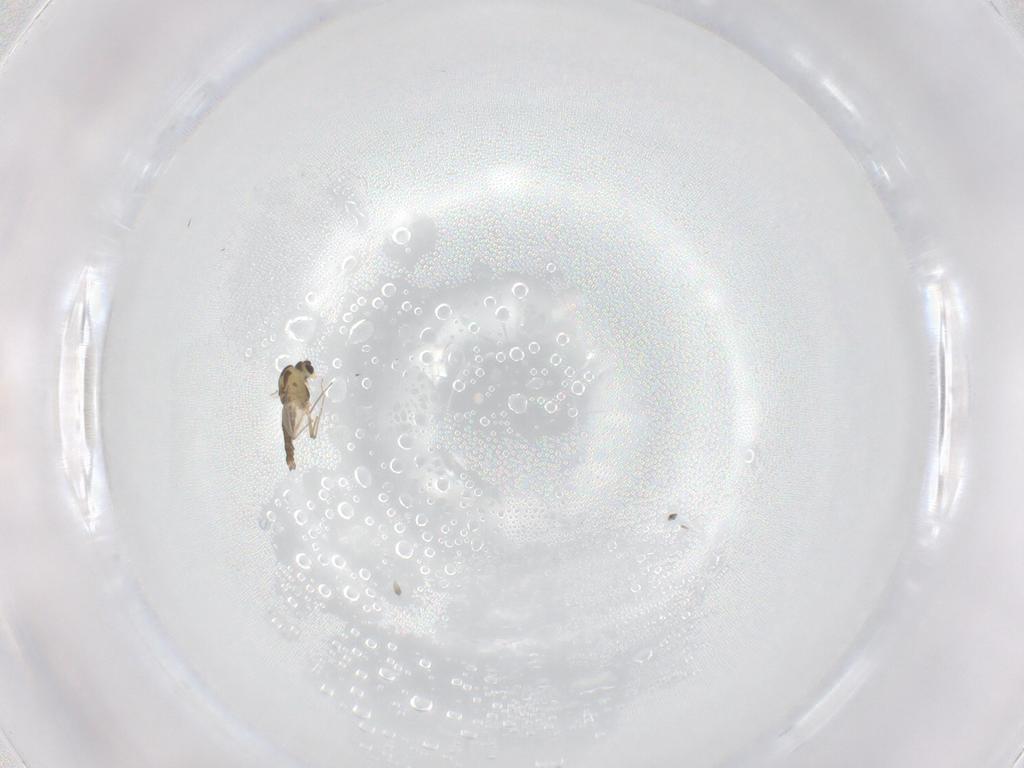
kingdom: Animalia
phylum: Arthropoda
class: Insecta
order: Diptera
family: Chironomidae
